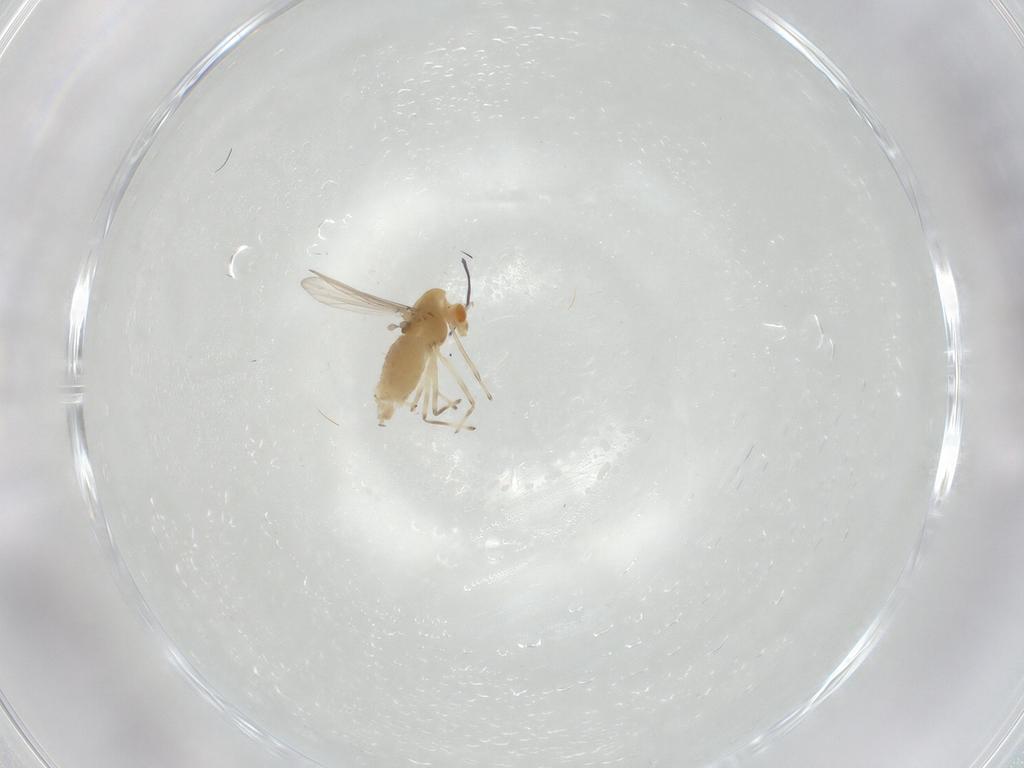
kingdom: Animalia
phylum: Arthropoda
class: Insecta
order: Diptera
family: Chironomidae
